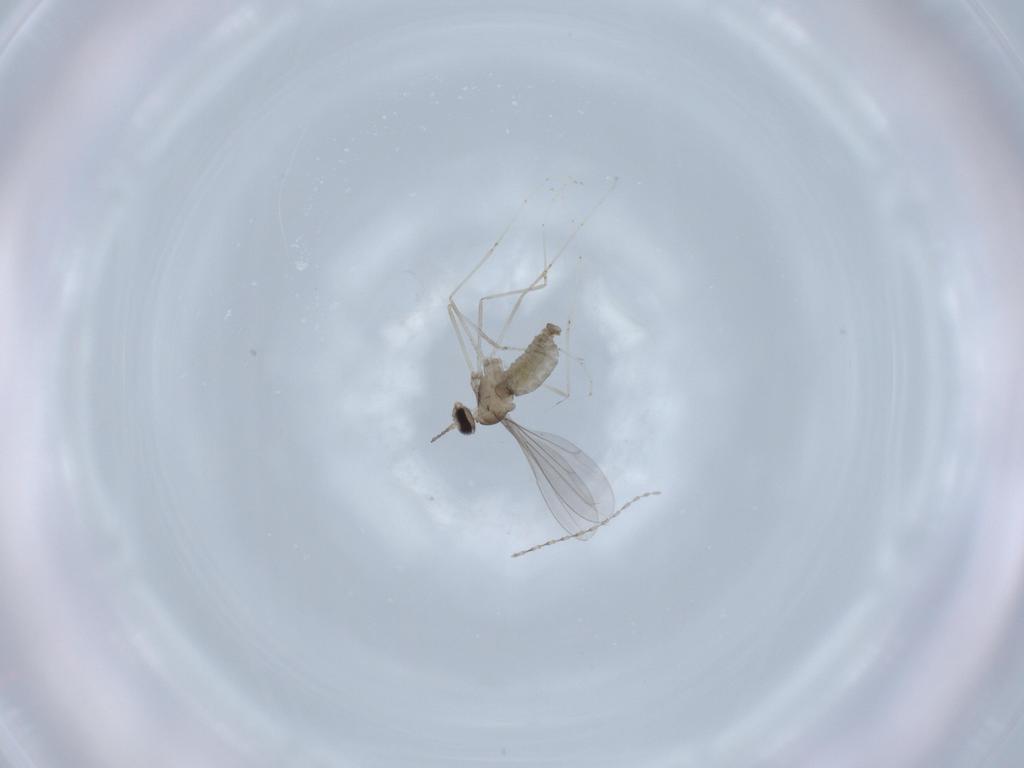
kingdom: Animalia
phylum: Arthropoda
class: Insecta
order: Diptera
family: Cecidomyiidae
